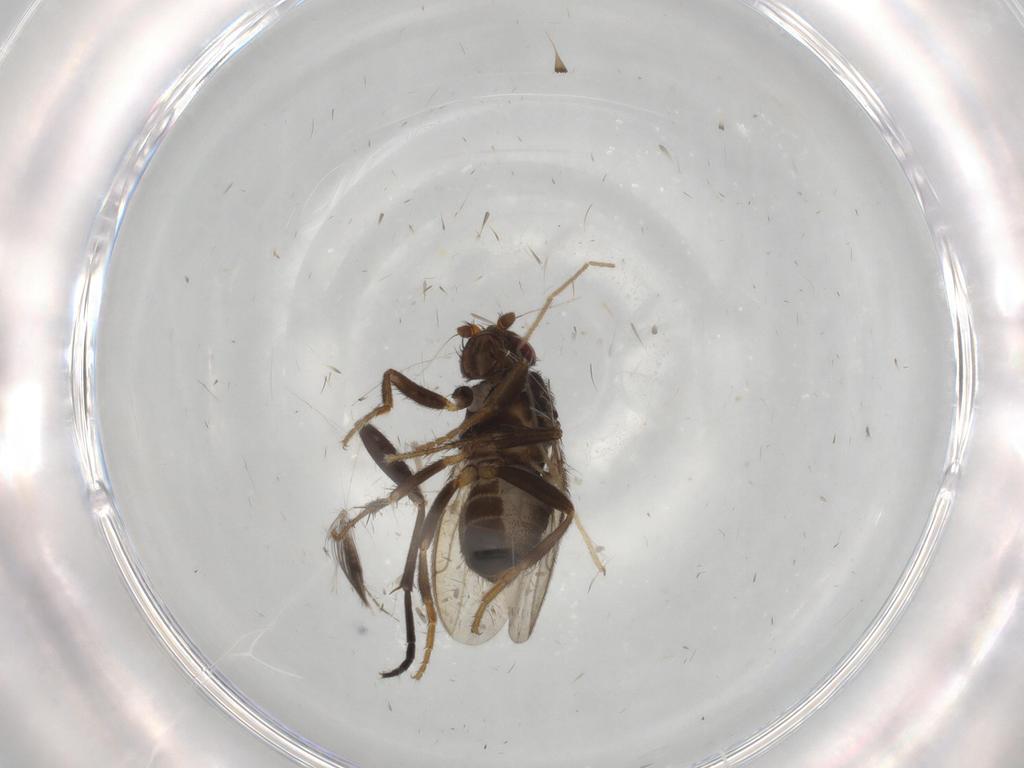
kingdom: Animalia
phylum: Arthropoda
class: Insecta
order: Diptera
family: Sphaeroceridae
